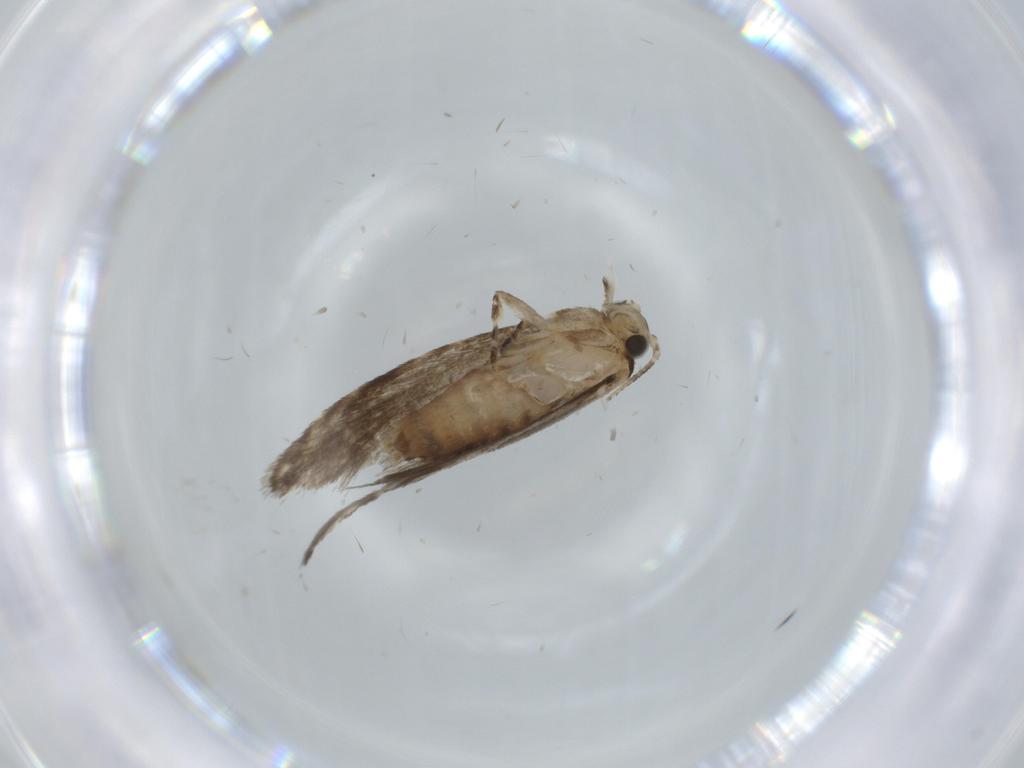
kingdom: Animalia
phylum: Arthropoda
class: Insecta
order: Lepidoptera
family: Tineidae
